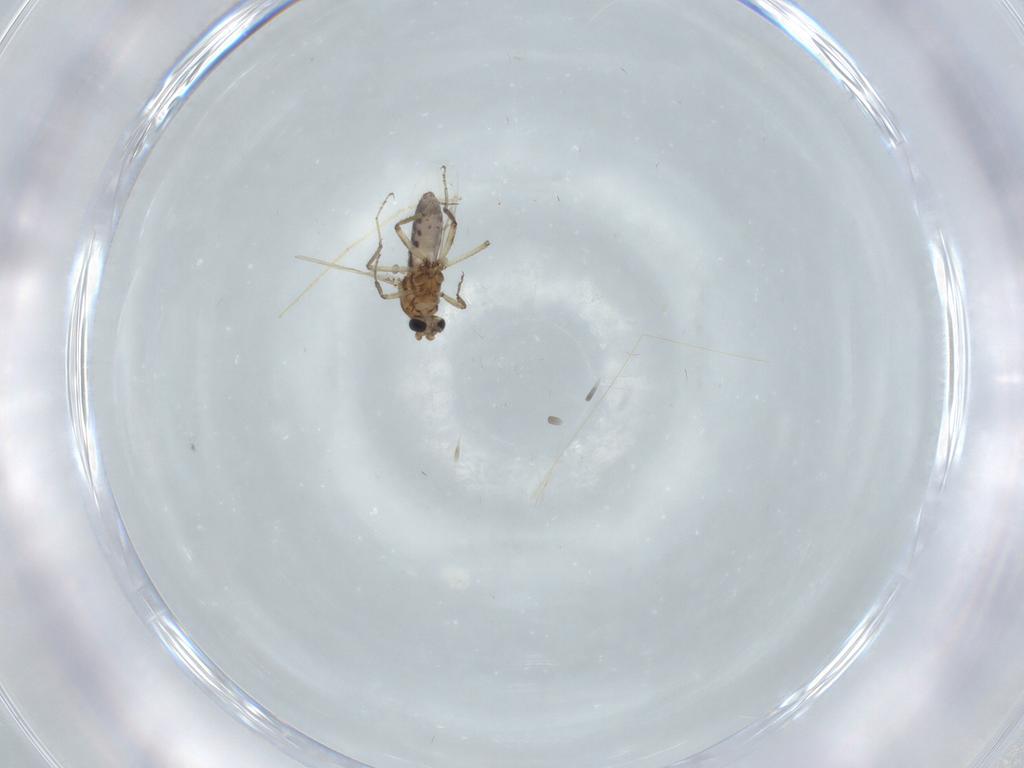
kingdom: Animalia
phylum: Arthropoda
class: Insecta
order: Diptera
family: Ceratopogonidae
